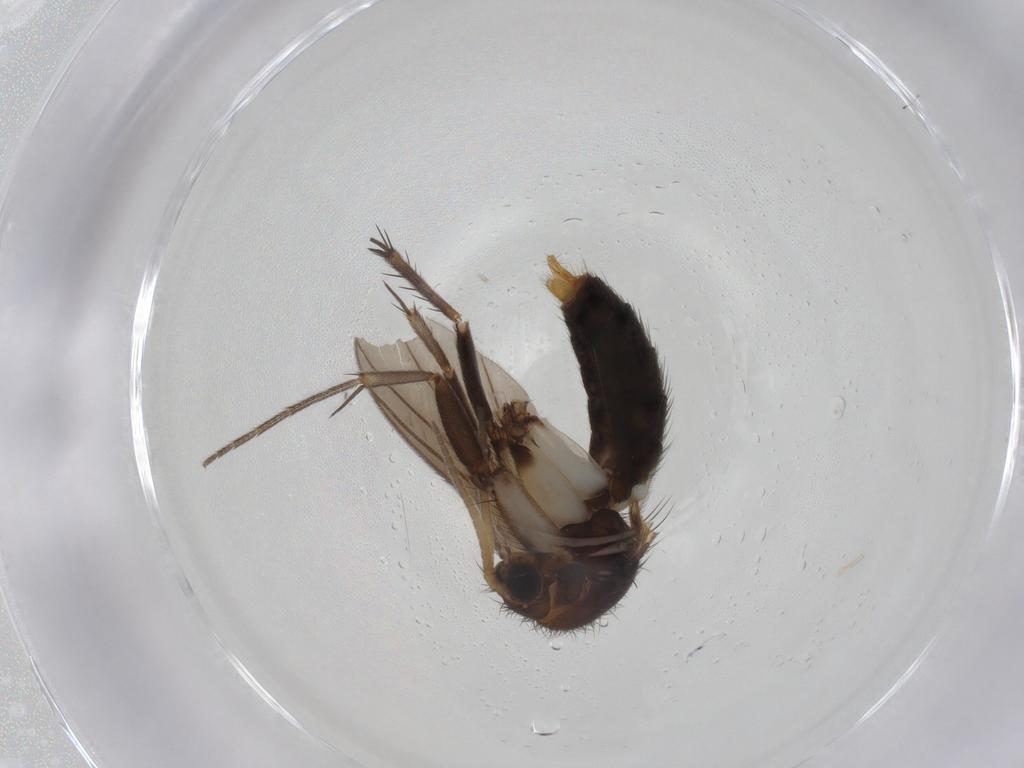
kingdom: Animalia
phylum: Arthropoda
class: Insecta
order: Diptera
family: Mycetophilidae
